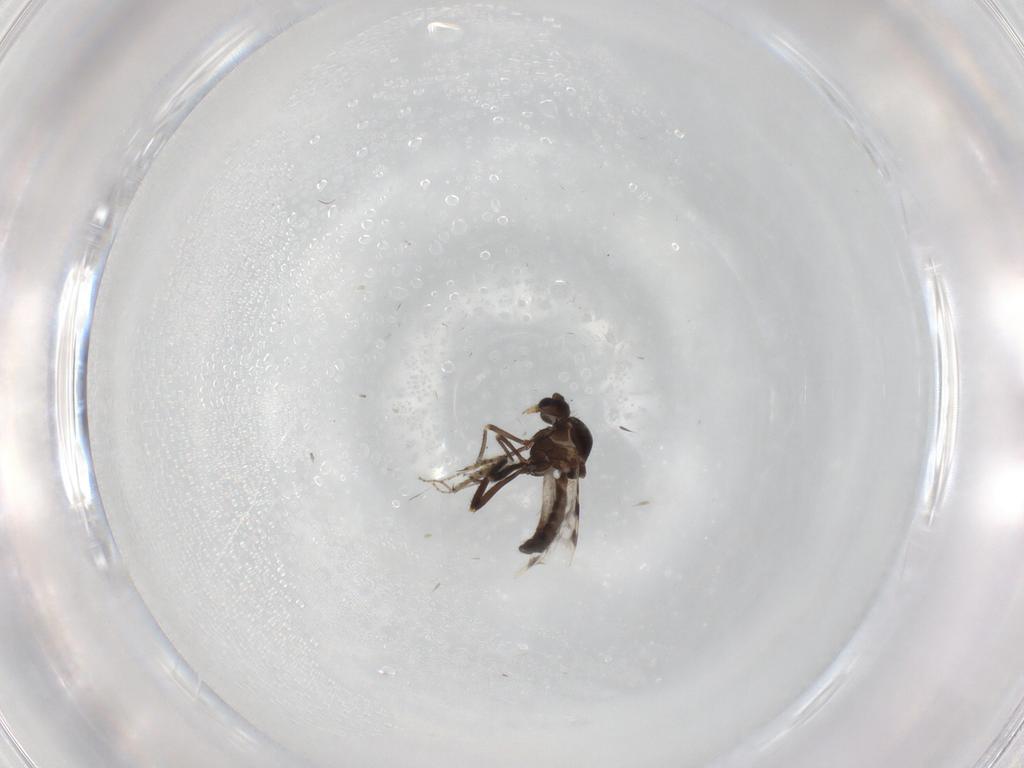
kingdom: Animalia
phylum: Arthropoda
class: Insecta
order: Diptera
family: Ceratopogonidae
